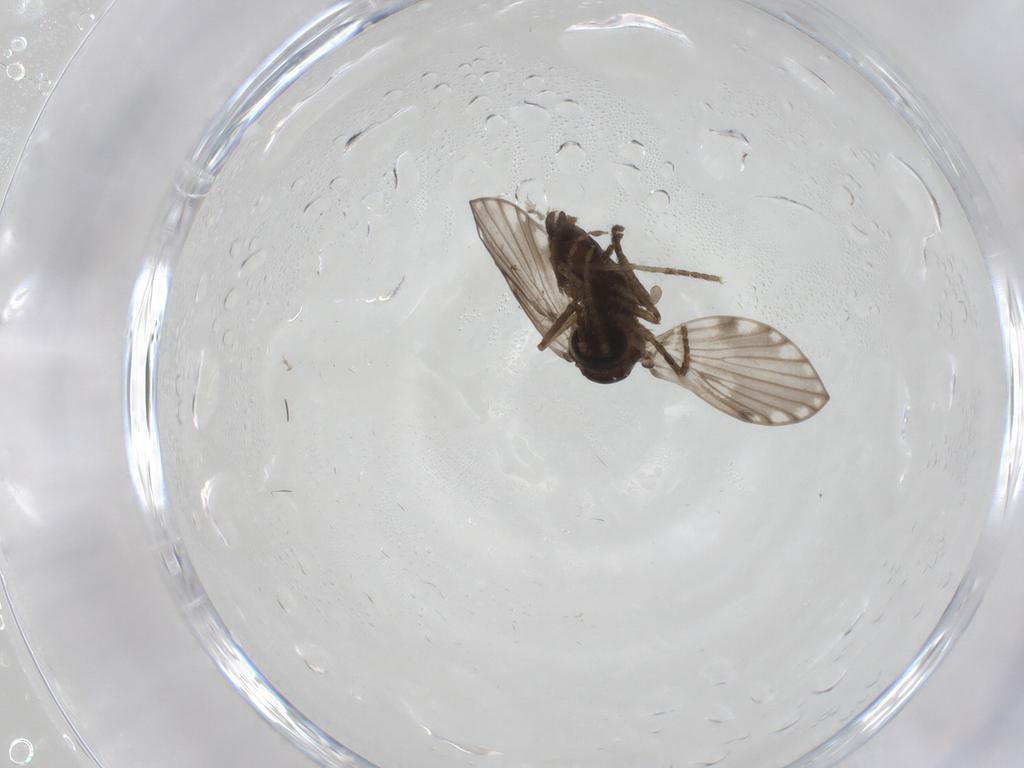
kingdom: Animalia
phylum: Arthropoda
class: Insecta
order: Diptera
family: Psychodidae
